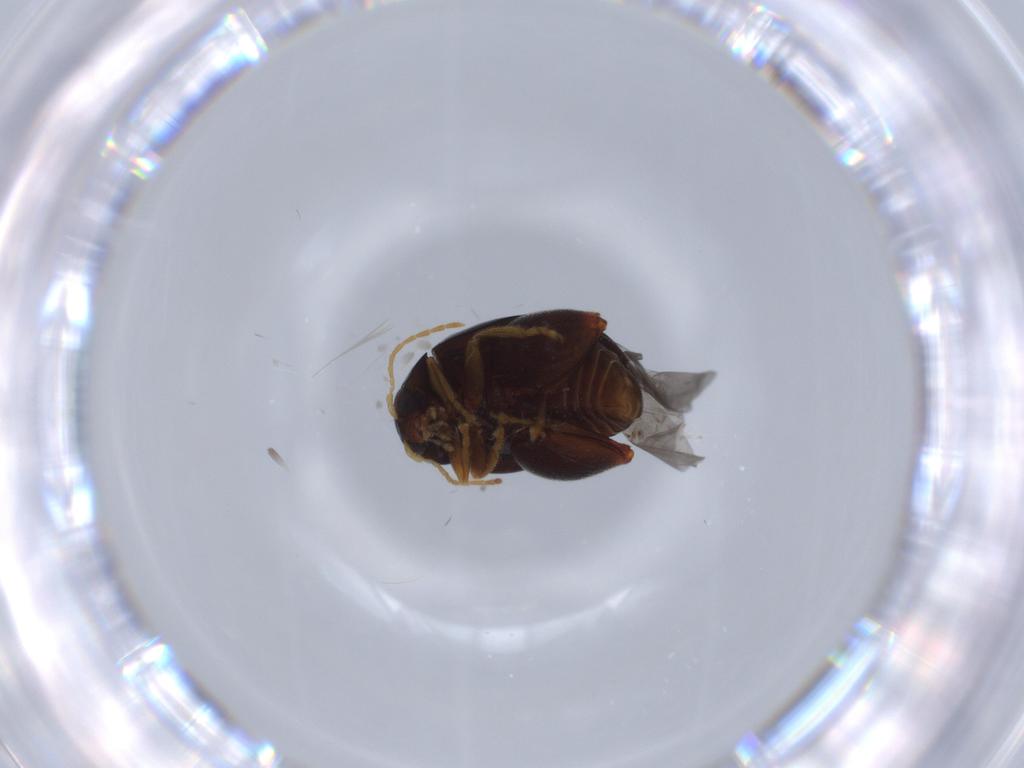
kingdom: Animalia
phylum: Arthropoda
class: Insecta
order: Coleoptera
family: Chrysomelidae
